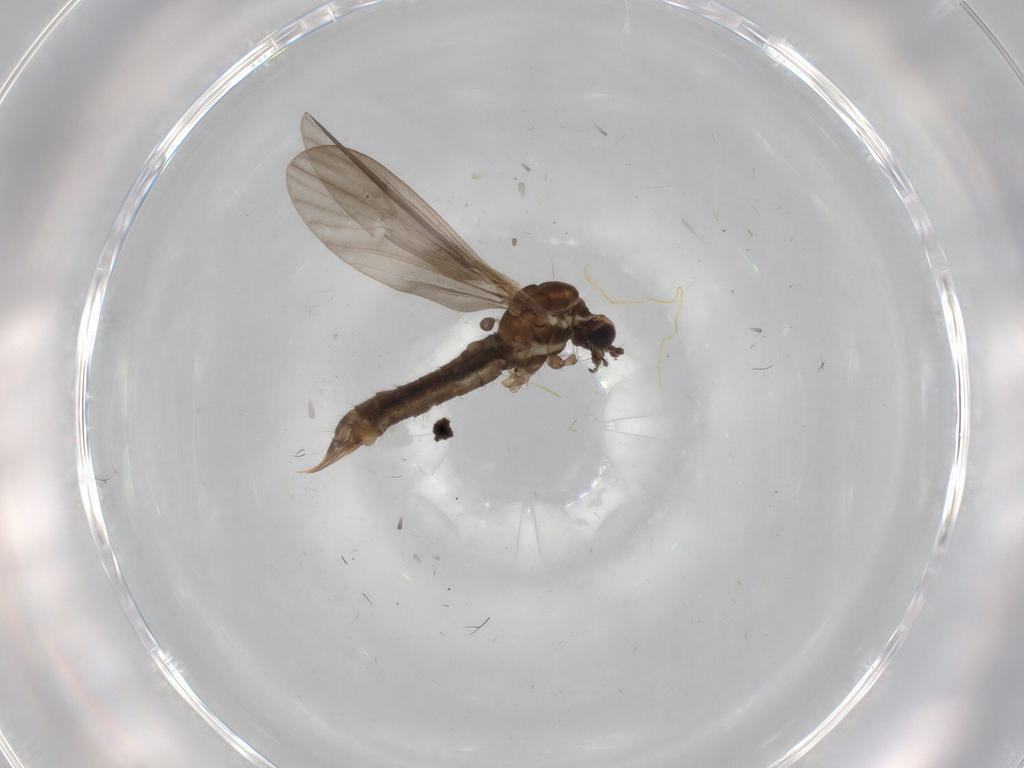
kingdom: Animalia
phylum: Arthropoda
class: Insecta
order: Diptera
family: Limoniidae
